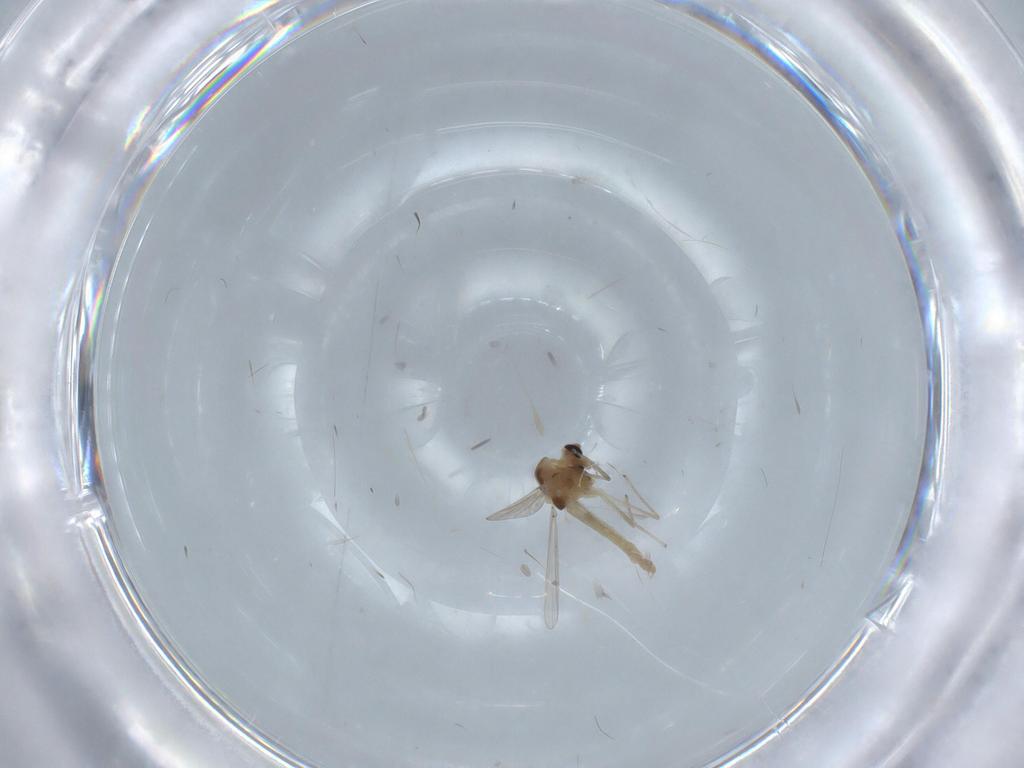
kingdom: Animalia
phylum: Arthropoda
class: Insecta
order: Diptera
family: Chironomidae
